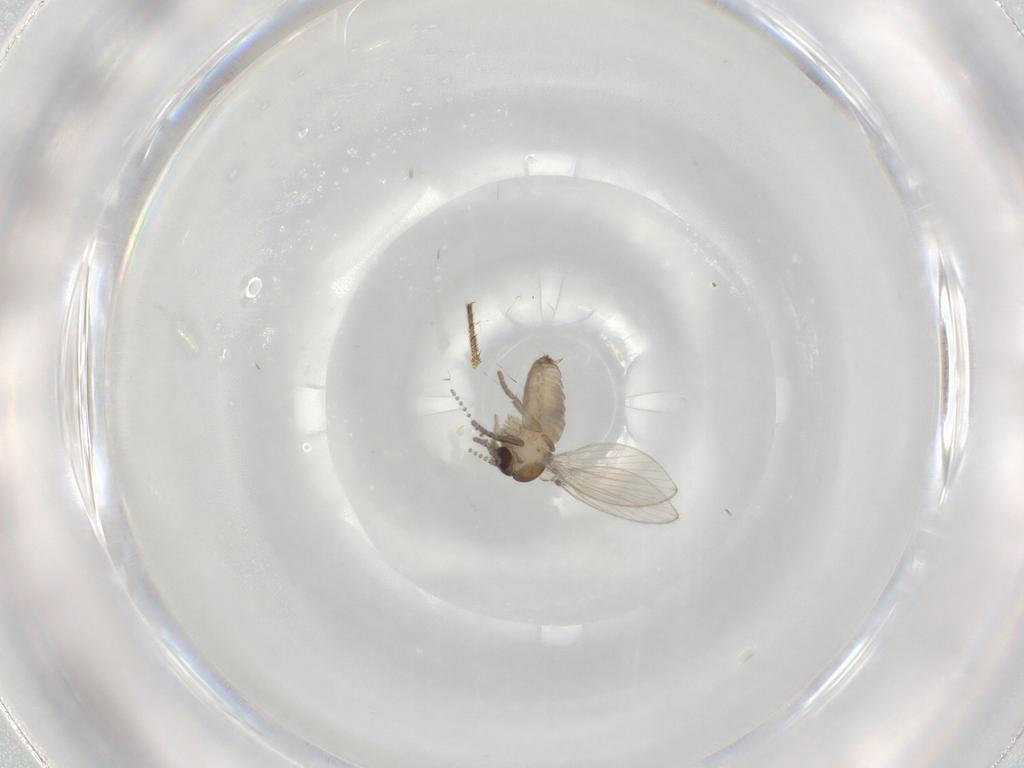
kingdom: Animalia
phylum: Arthropoda
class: Insecta
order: Diptera
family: Psychodidae
